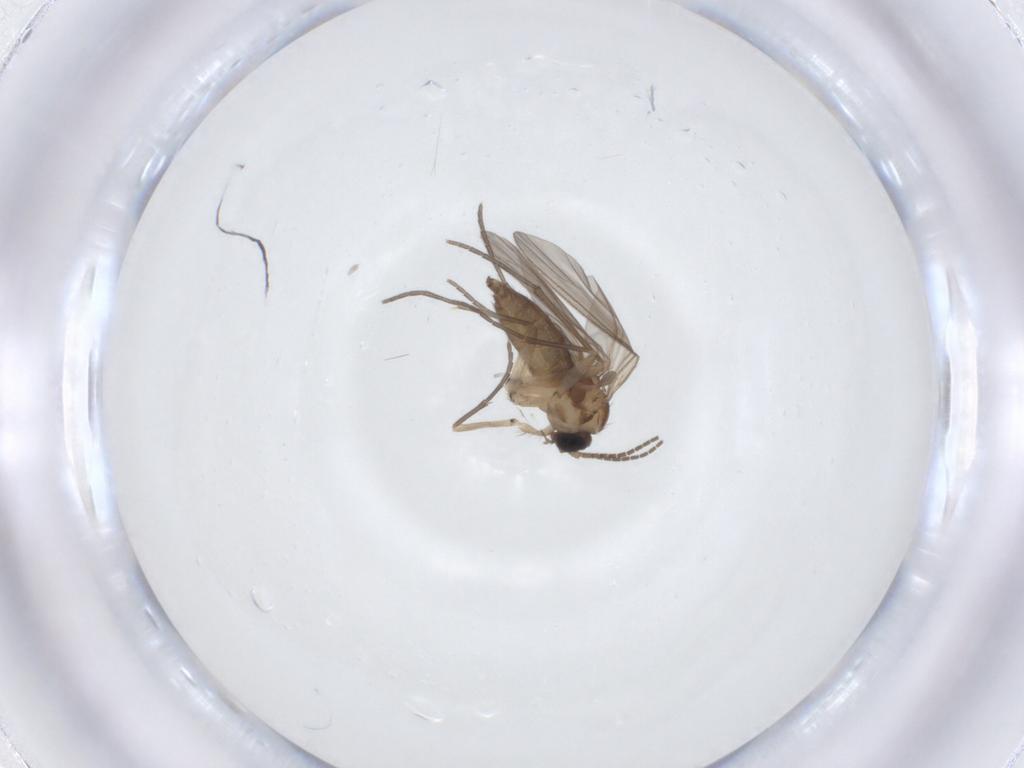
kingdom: Animalia
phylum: Arthropoda
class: Insecta
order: Diptera
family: Sciaridae
